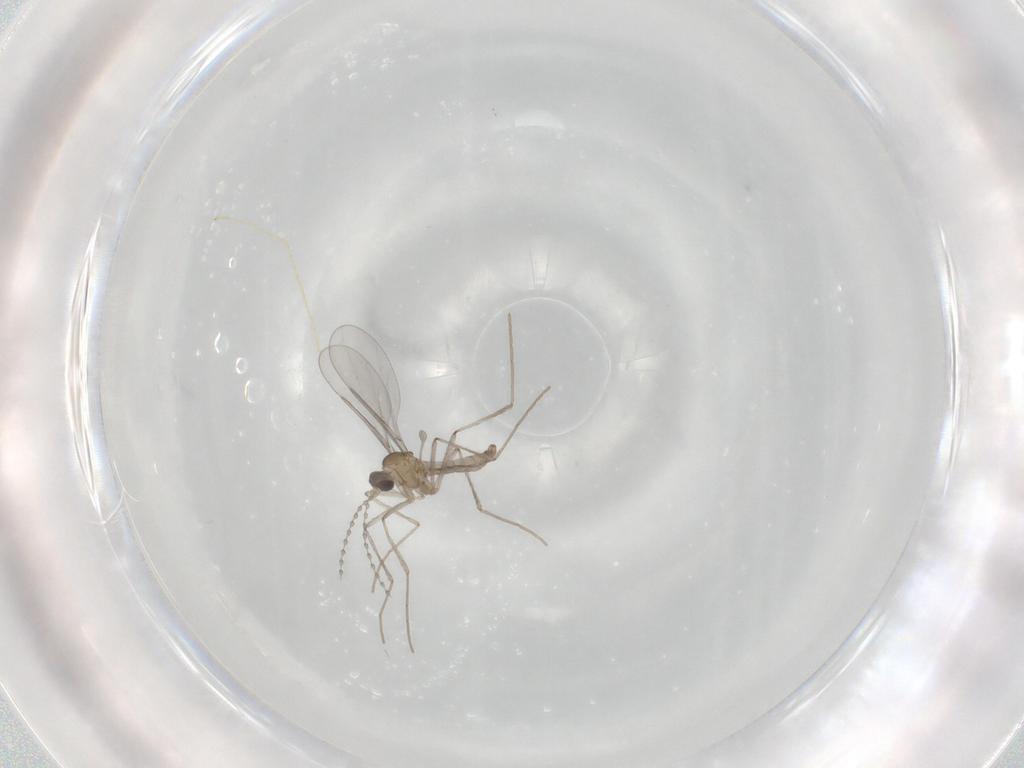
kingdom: Animalia
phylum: Arthropoda
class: Insecta
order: Diptera
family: Cecidomyiidae
